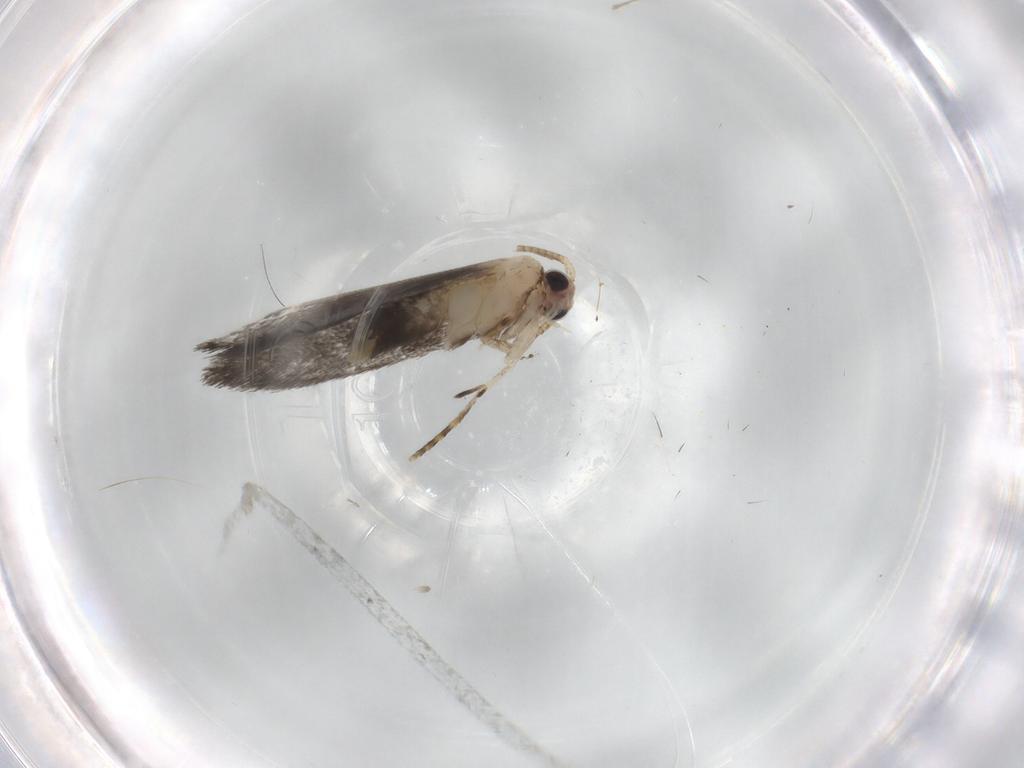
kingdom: Animalia
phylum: Arthropoda
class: Insecta
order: Lepidoptera
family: Tineidae
